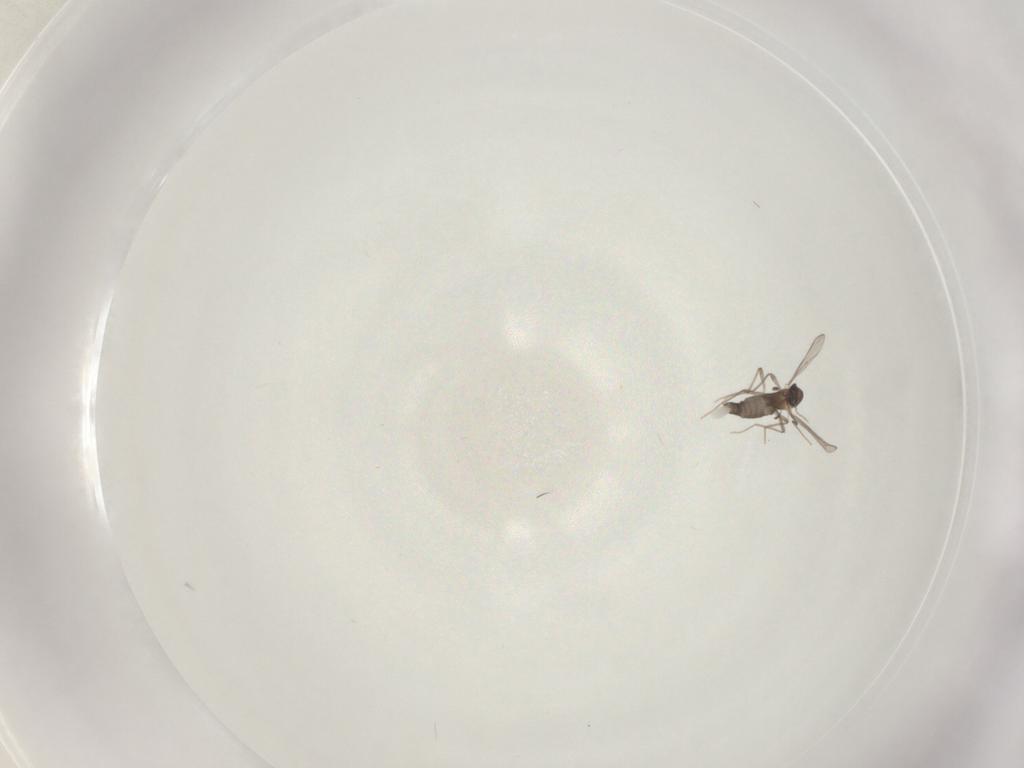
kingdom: Animalia
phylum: Arthropoda
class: Insecta
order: Diptera
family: Chironomidae
